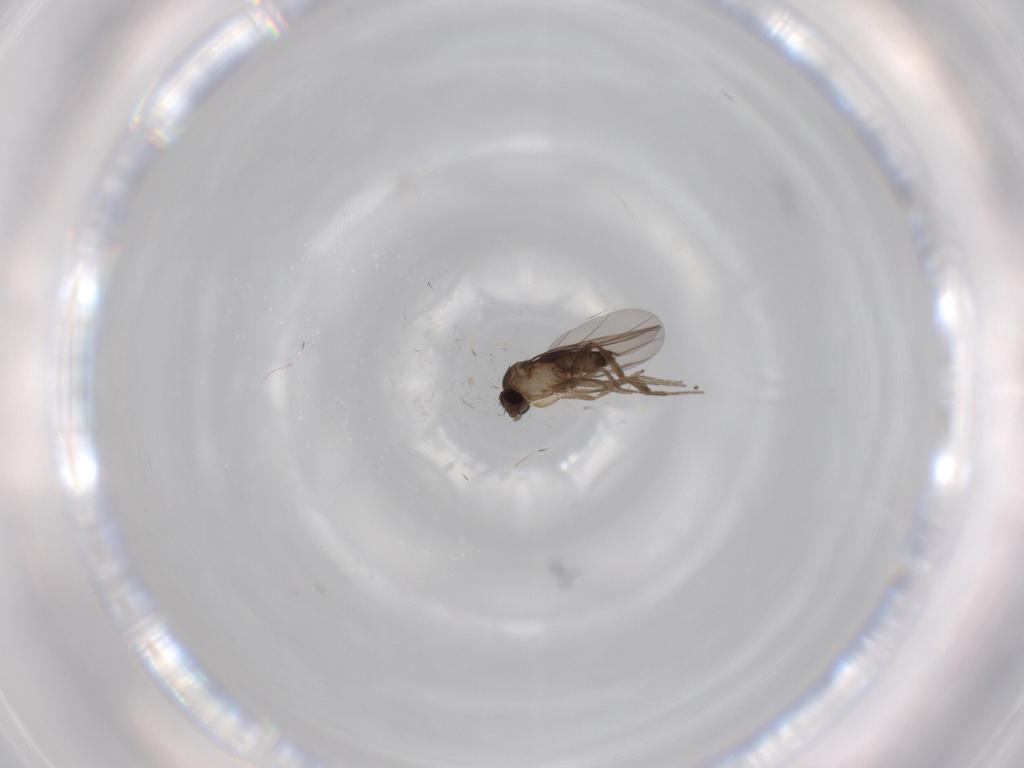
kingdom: Animalia
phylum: Arthropoda
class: Insecta
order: Diptera
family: Phoridae
